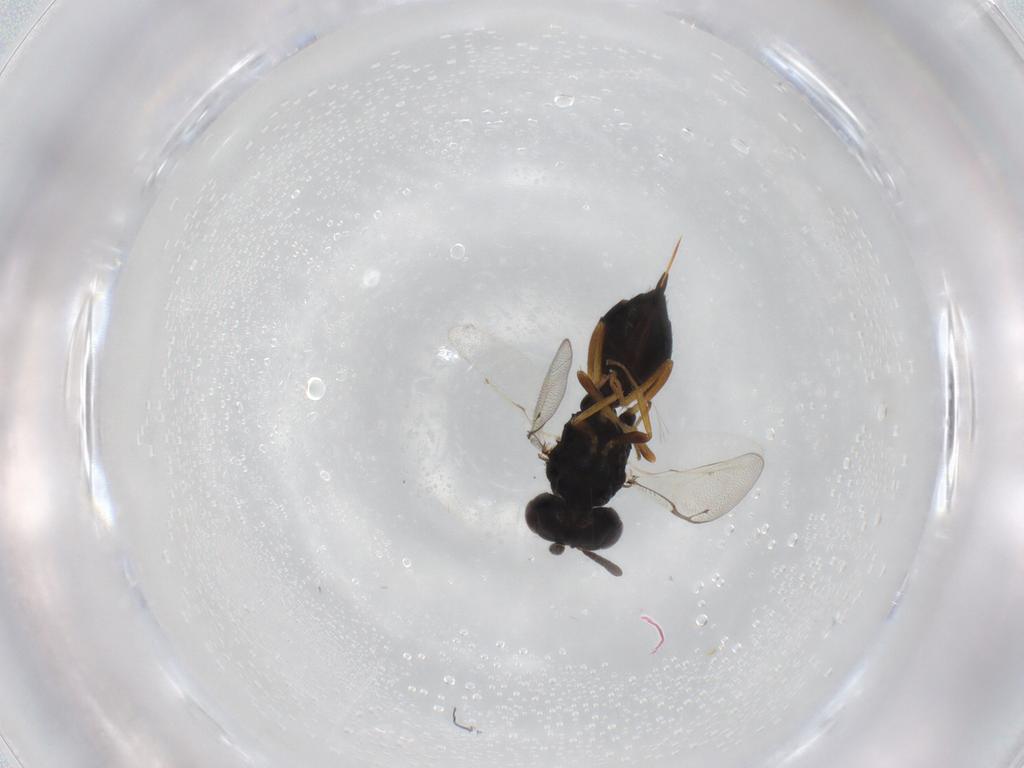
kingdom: Animalia
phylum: Arthropoda
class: Insecta
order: Hymenoptera
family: Pteromalidae
